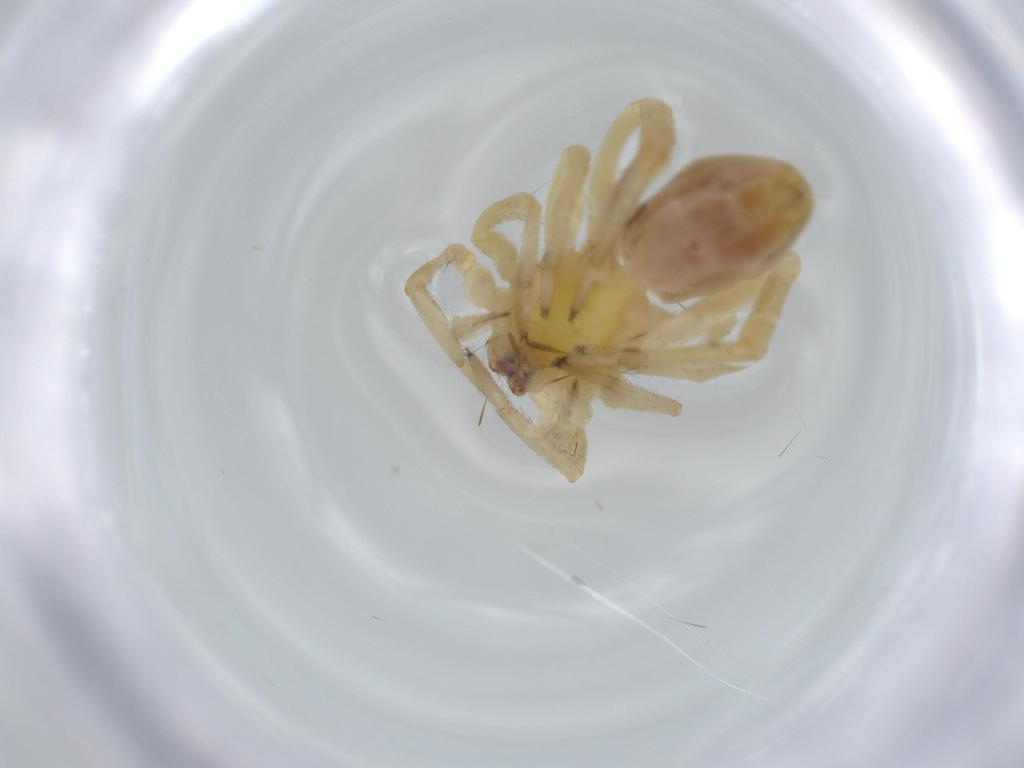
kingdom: Animalia
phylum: Arthropoda
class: Arachnida
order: Araneae
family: Anyphaenidae
